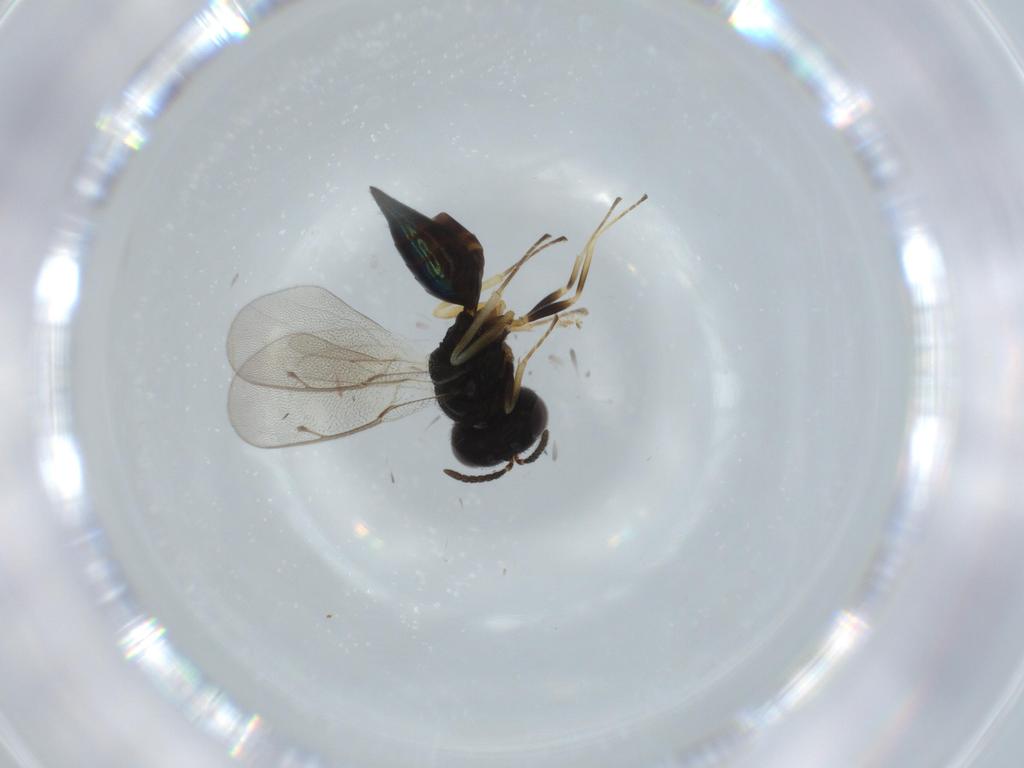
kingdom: Animalia
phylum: Arthropoda
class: Insecta
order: Hymenoptera
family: Pteromalidae
